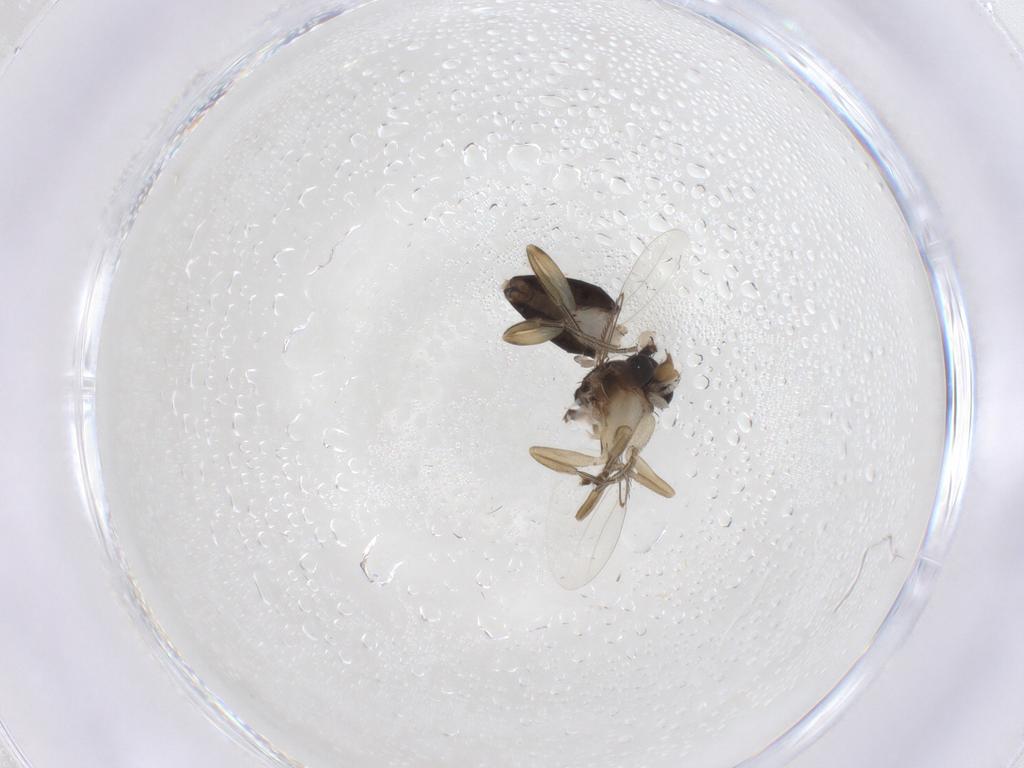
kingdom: Animalia
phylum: Arthropoda
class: Insecta
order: Diptera
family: Phoridae
